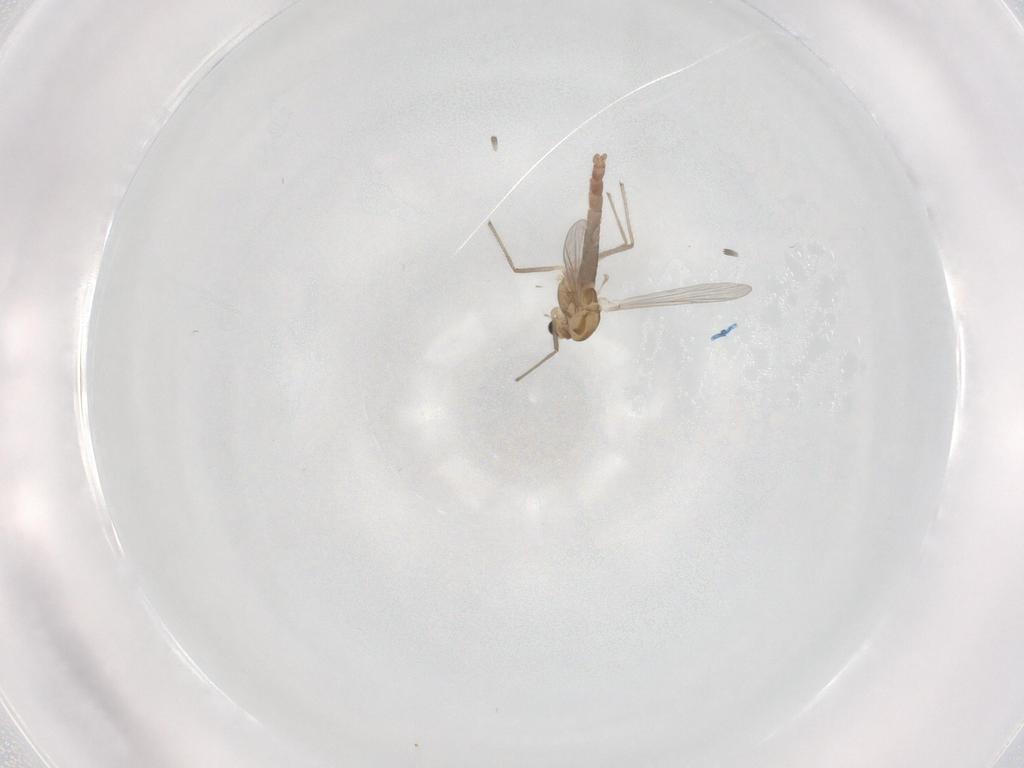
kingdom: Animalia
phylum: Arthropoda
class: Insecta
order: Diptera
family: Chironomidae
